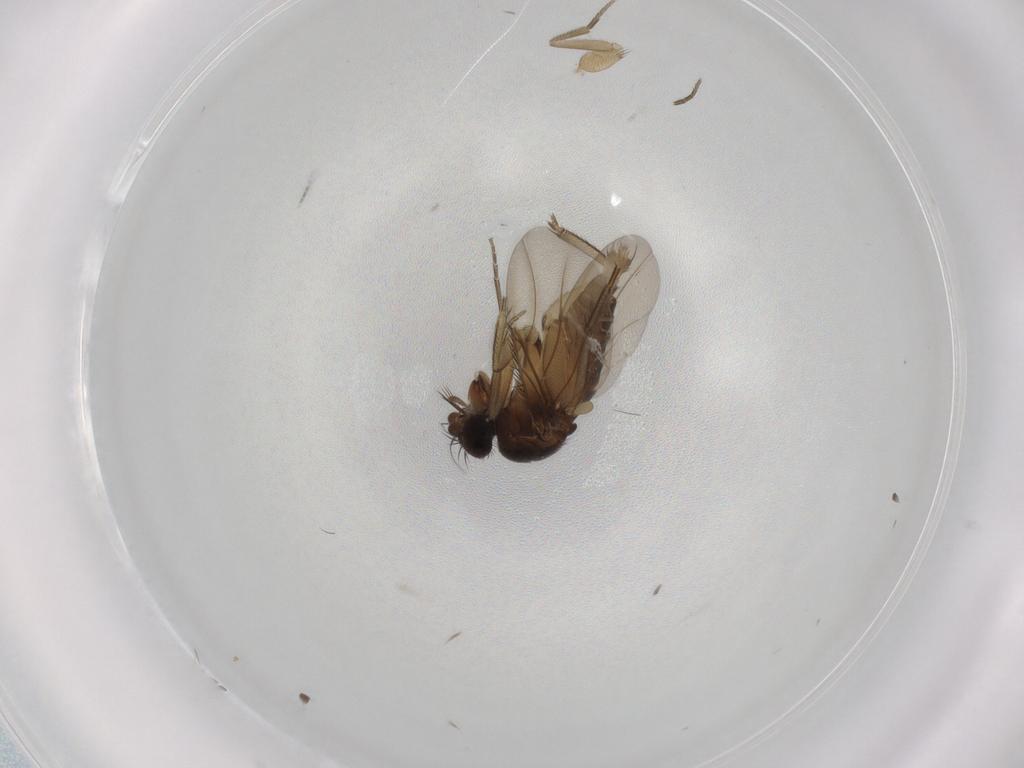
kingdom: Animalia
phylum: Arthropoda
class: Insecta
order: Diptera
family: Phoridae
